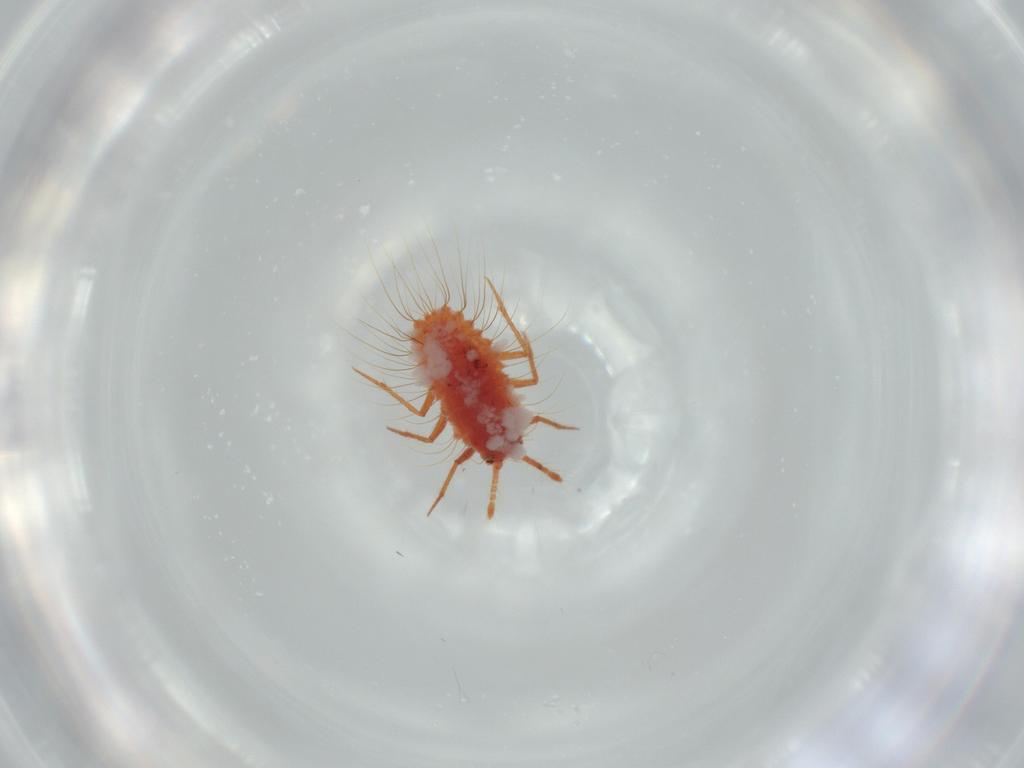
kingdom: Animalia
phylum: Arthropoda
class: Insecta
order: Hemiptera
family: Monophlebidae
